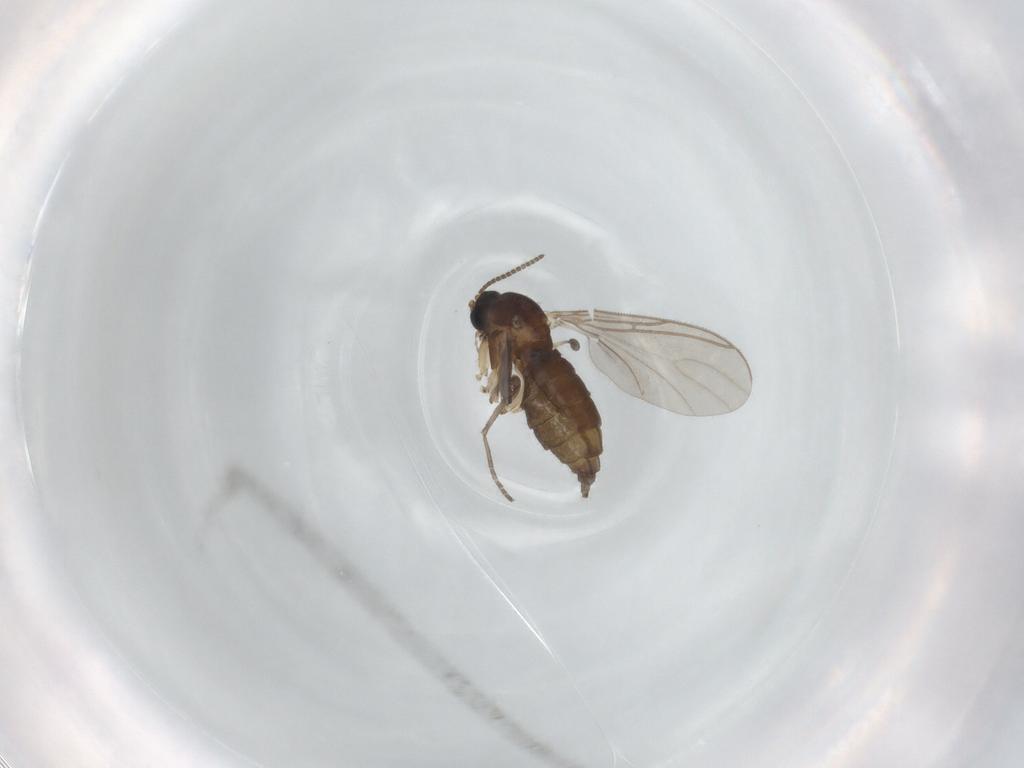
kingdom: Animalia
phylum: Arthropoda
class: Insecta
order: Diptera
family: Sciaridae
